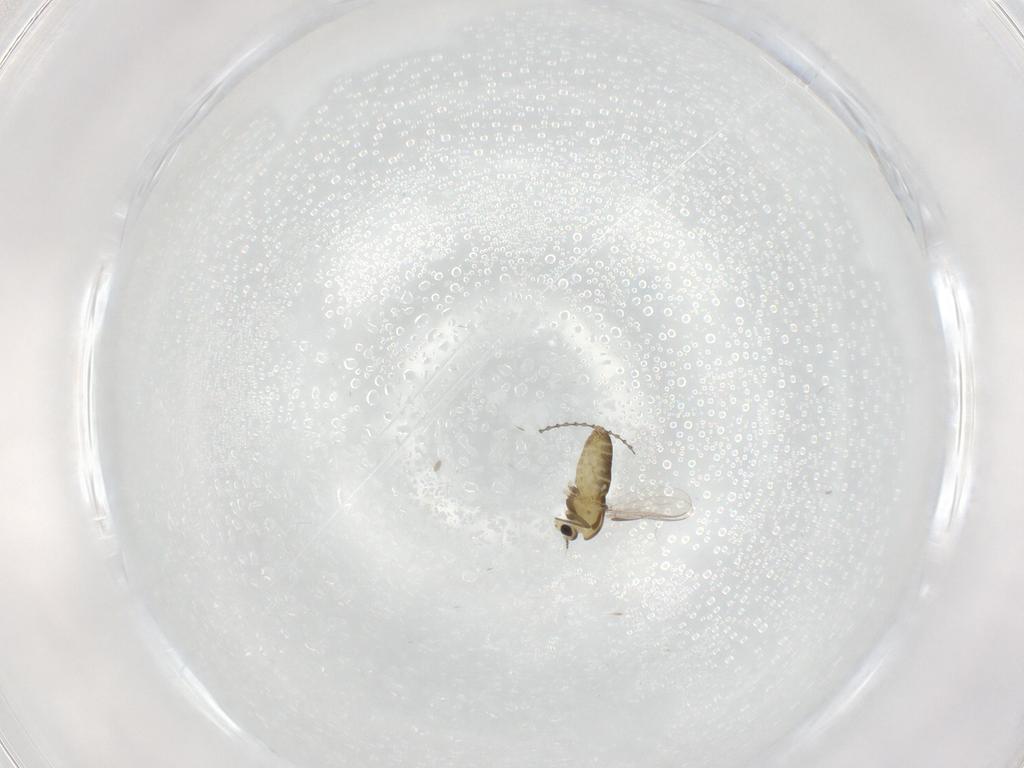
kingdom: Animalia
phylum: Arthropoda
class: Insecta
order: Diptera
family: Chironomidae
